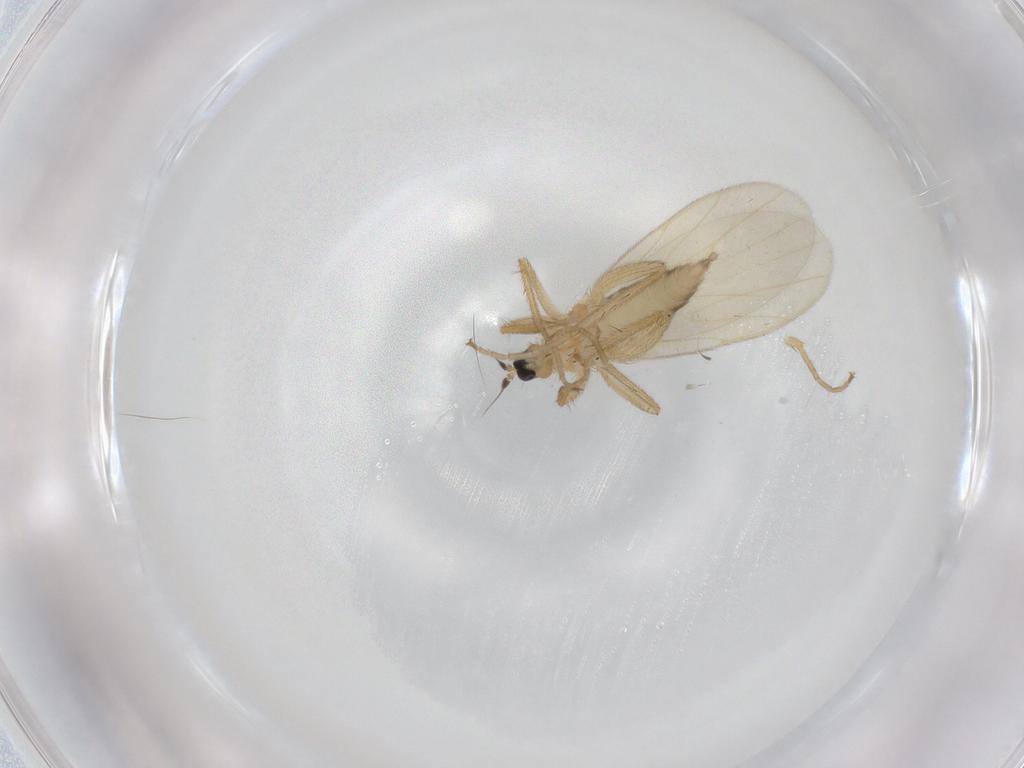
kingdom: Animalia
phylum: Arthropoda
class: Insecta
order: Diptera
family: Hybotidae
